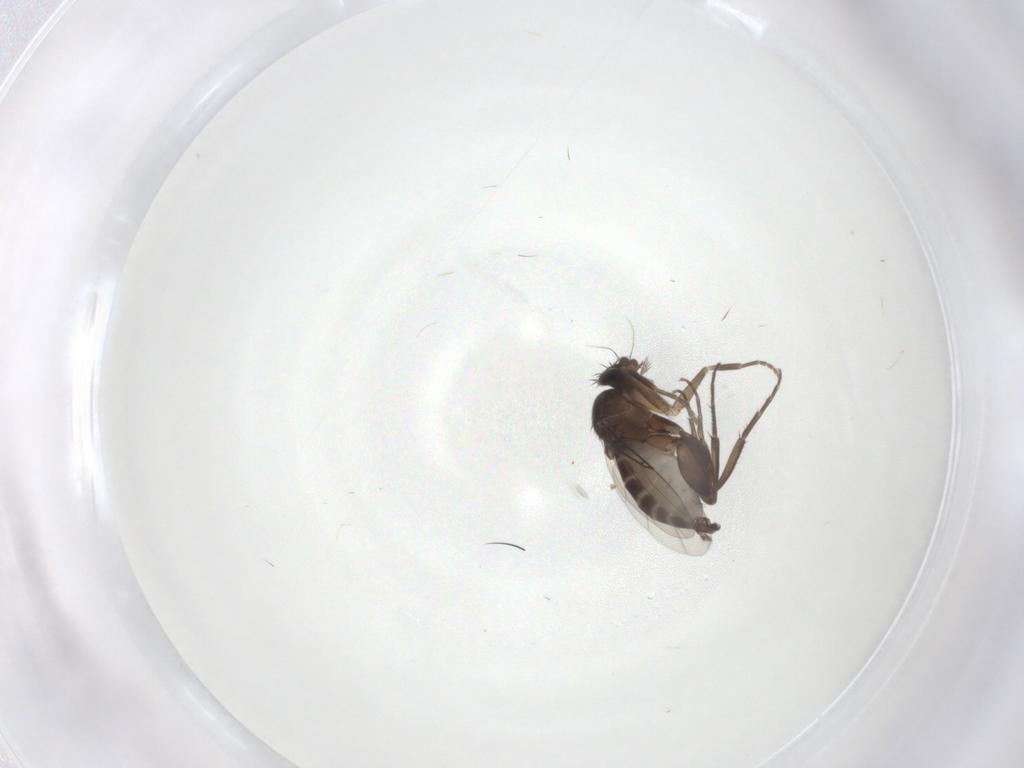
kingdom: Animalia
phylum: Arthropoda
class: Insecta
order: Diptera
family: Phoridae
